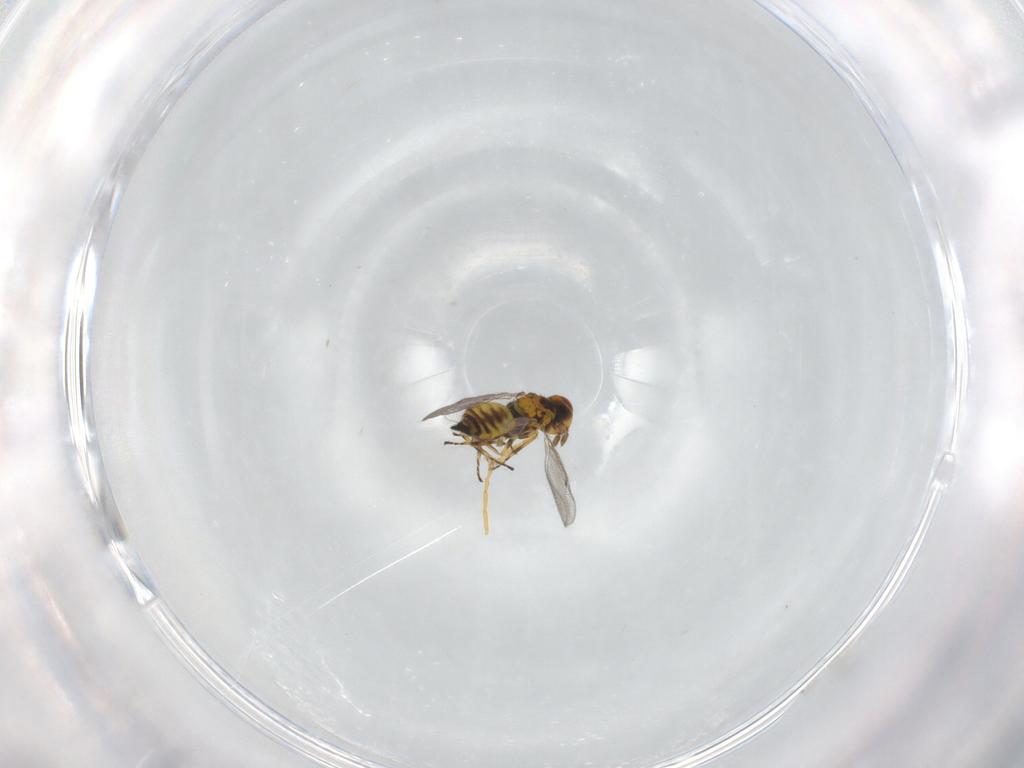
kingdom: Animalia
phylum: Arthropoda
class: Insecta
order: Hymenoptera
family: Eulophidae
